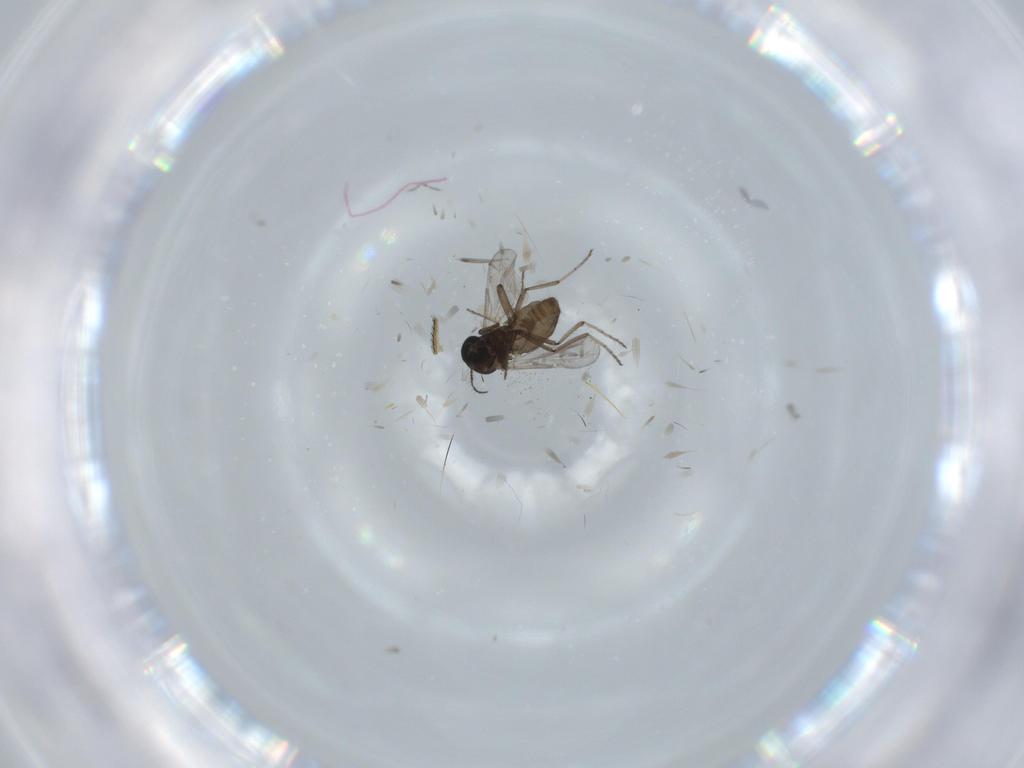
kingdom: Animalia
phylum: Arthropoda
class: Insecta
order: Diptera
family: Ceratopogonidae
